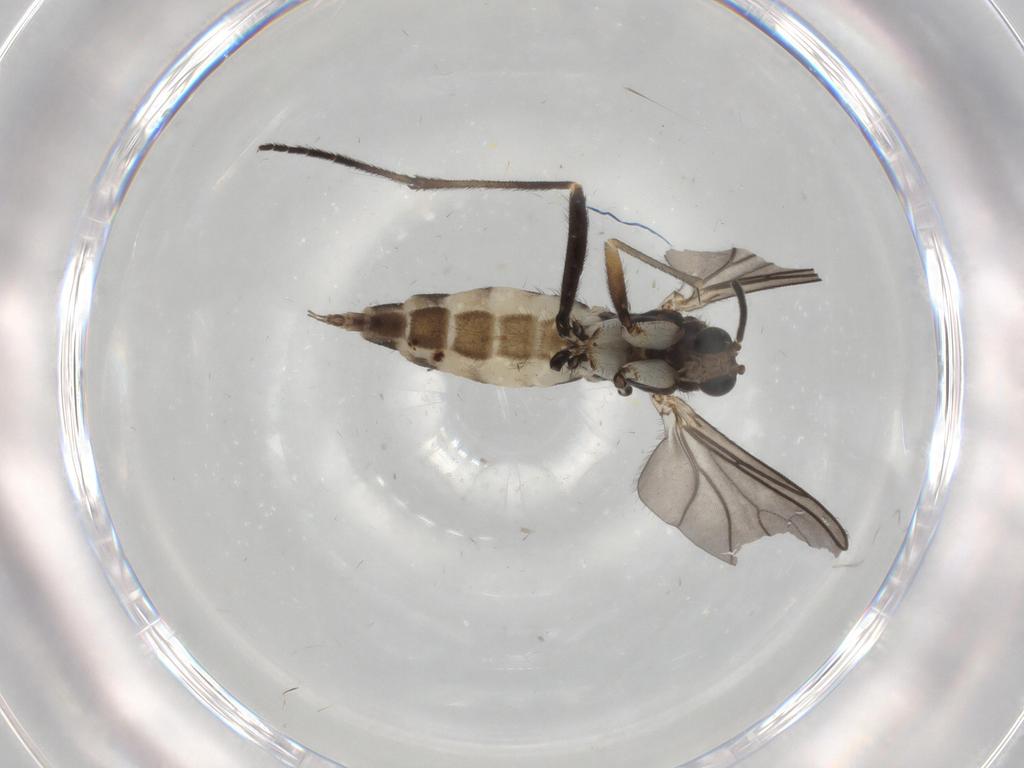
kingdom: Animalia
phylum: Arthropoda
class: Insecta
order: Diptera
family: Sciaridae
